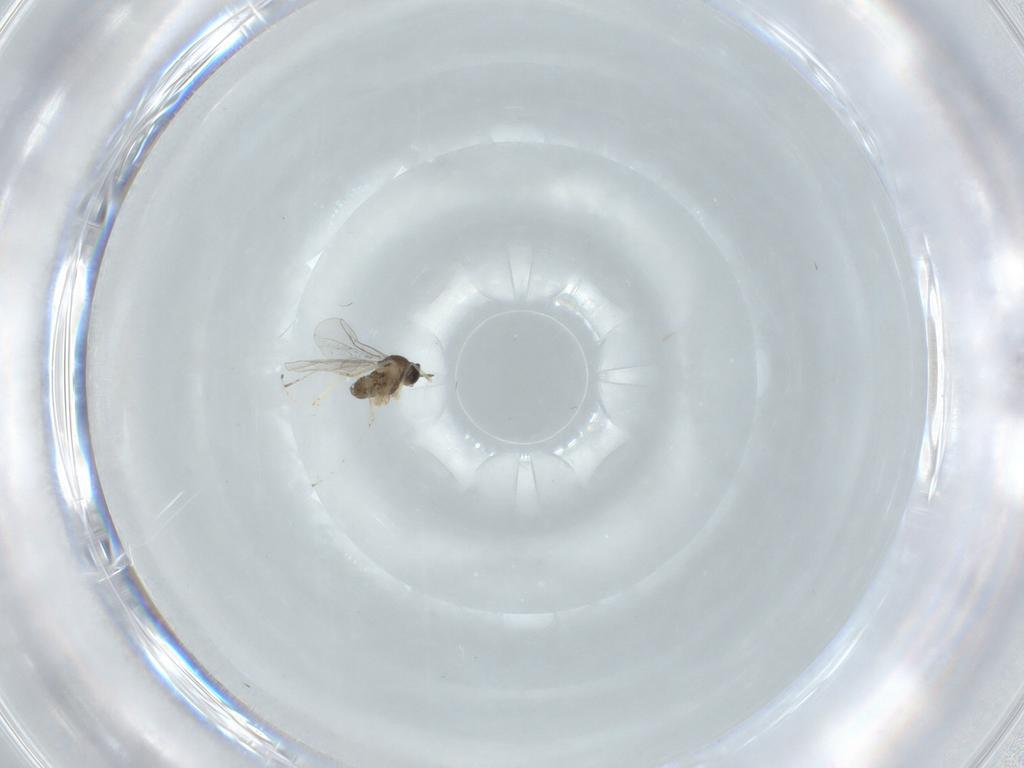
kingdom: Animalia
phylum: Arthropoda
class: Insecta
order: Diptera
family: Cecidomyiidae
